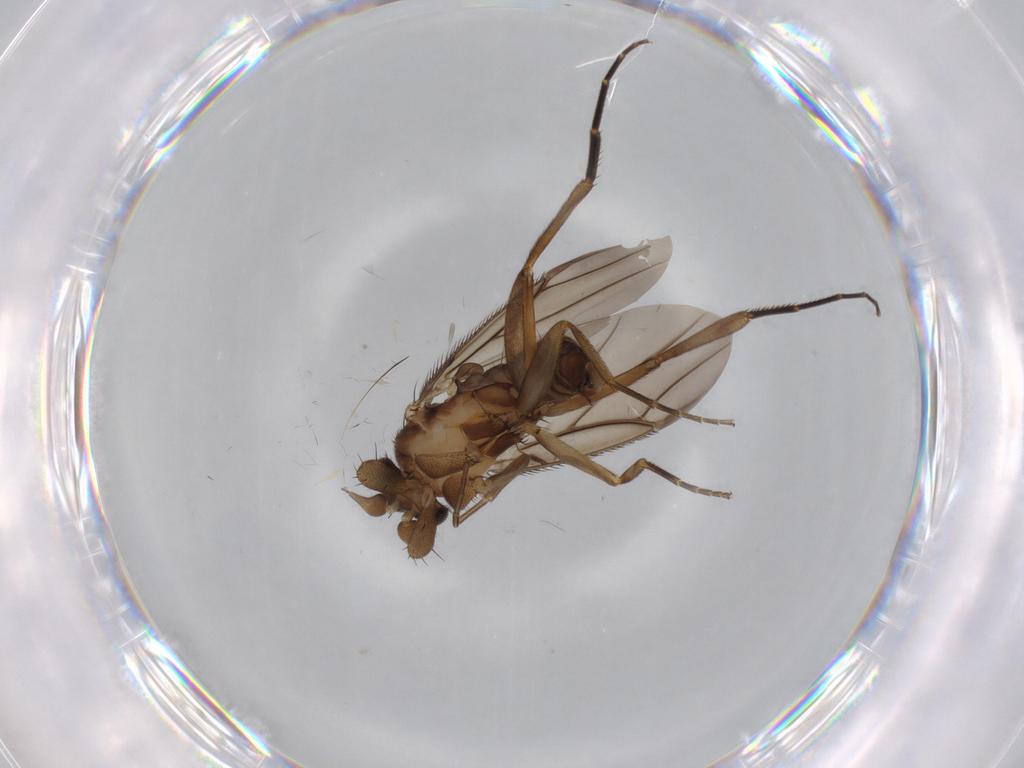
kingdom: Animalia
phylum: Arthropoda
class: Insecta
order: Diptera
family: Cecidomyiidae
